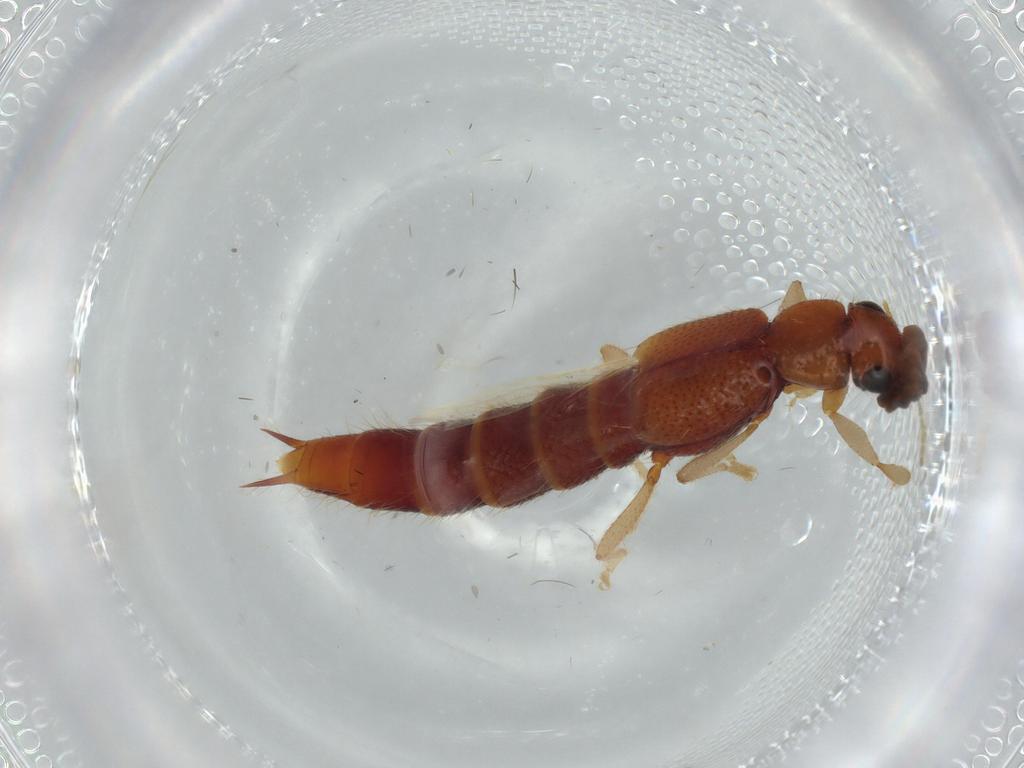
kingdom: Animalia
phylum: Arthropoda
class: Insecta
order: Coleoptera
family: Staphylinidae
